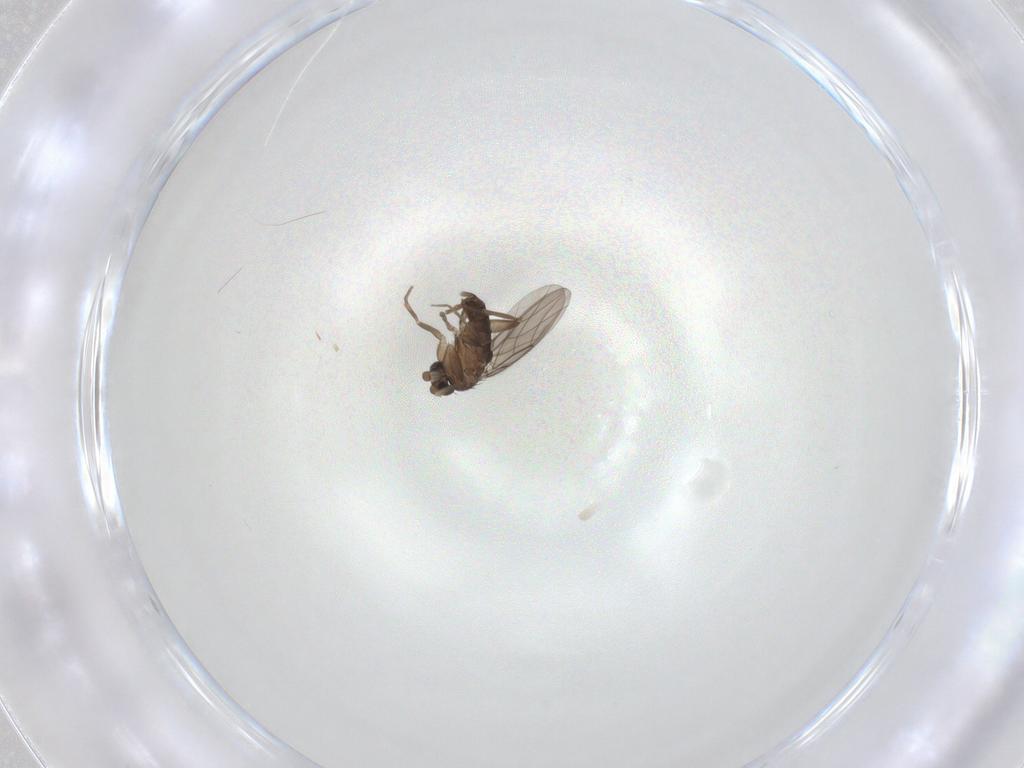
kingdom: Animalia
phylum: Arthropoda
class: Insecta
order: Diptera
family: Phoridae
